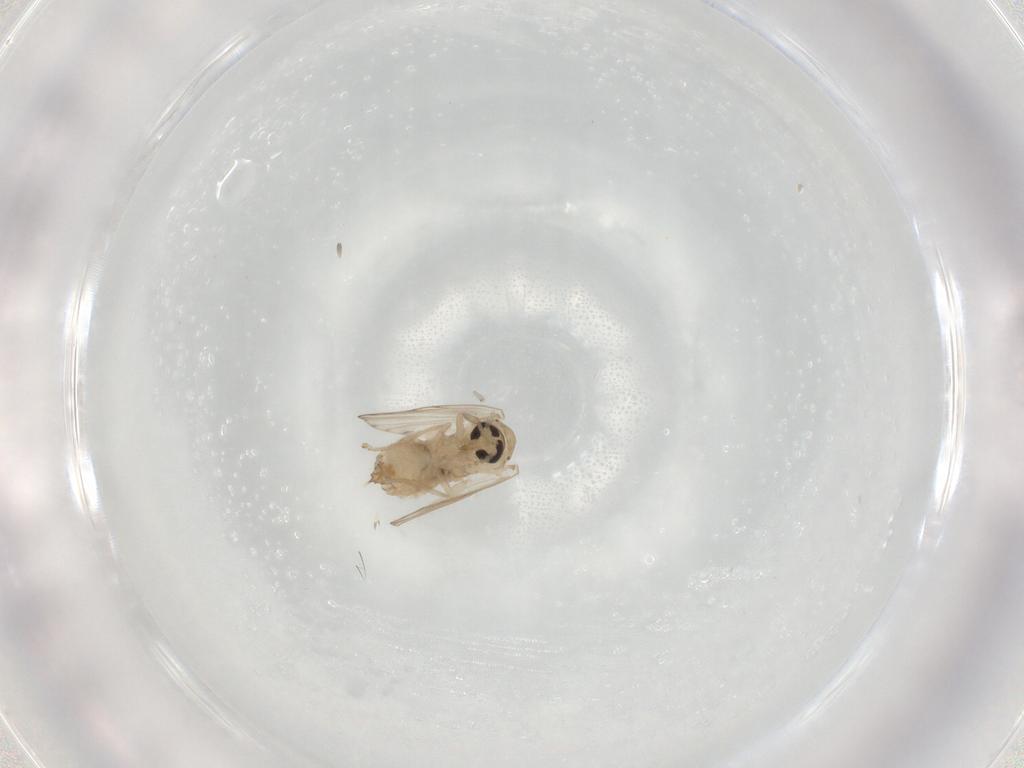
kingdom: Animalia
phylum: Arthropoda
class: Insecta
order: Diptera
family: Psychodidae
